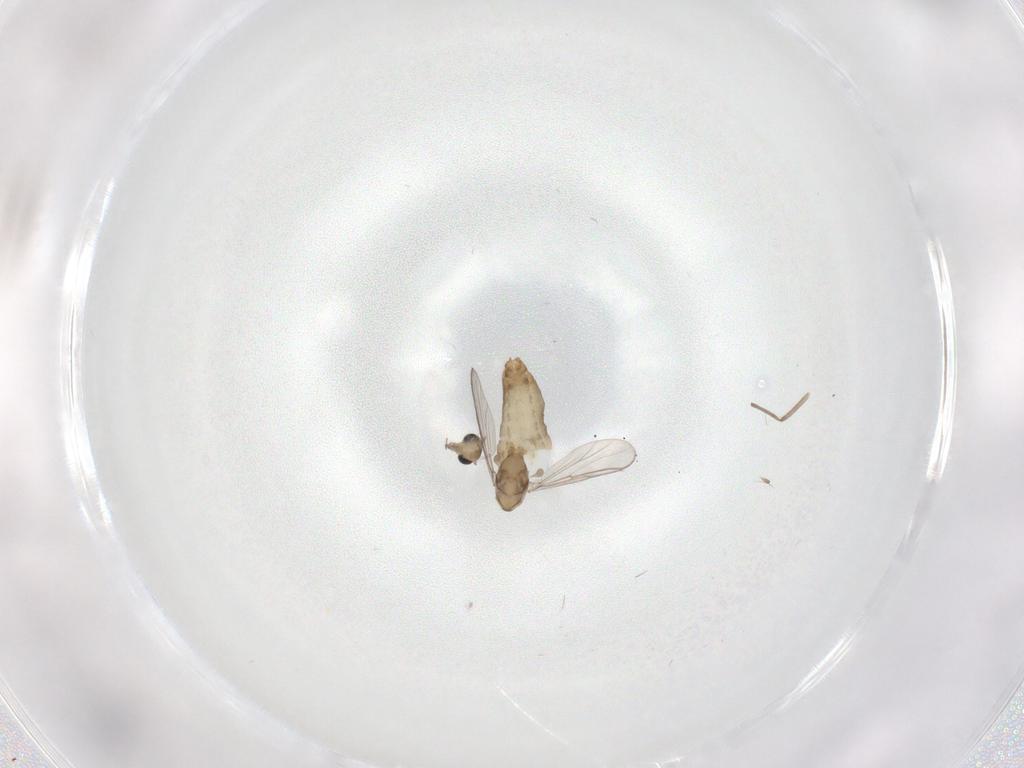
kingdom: Animalia
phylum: Arthropoda
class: Insecta
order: Diptera
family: Chironomidae
